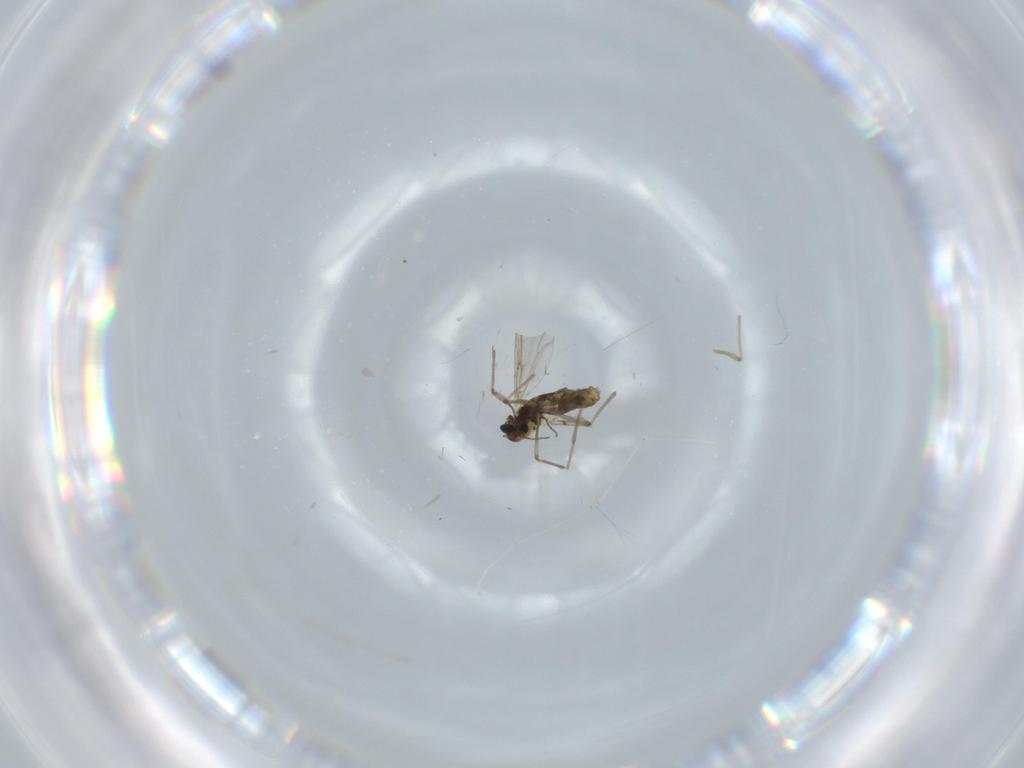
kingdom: Animalia
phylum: Arthropoda
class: Insecta
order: Diptera
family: Chironomidae
